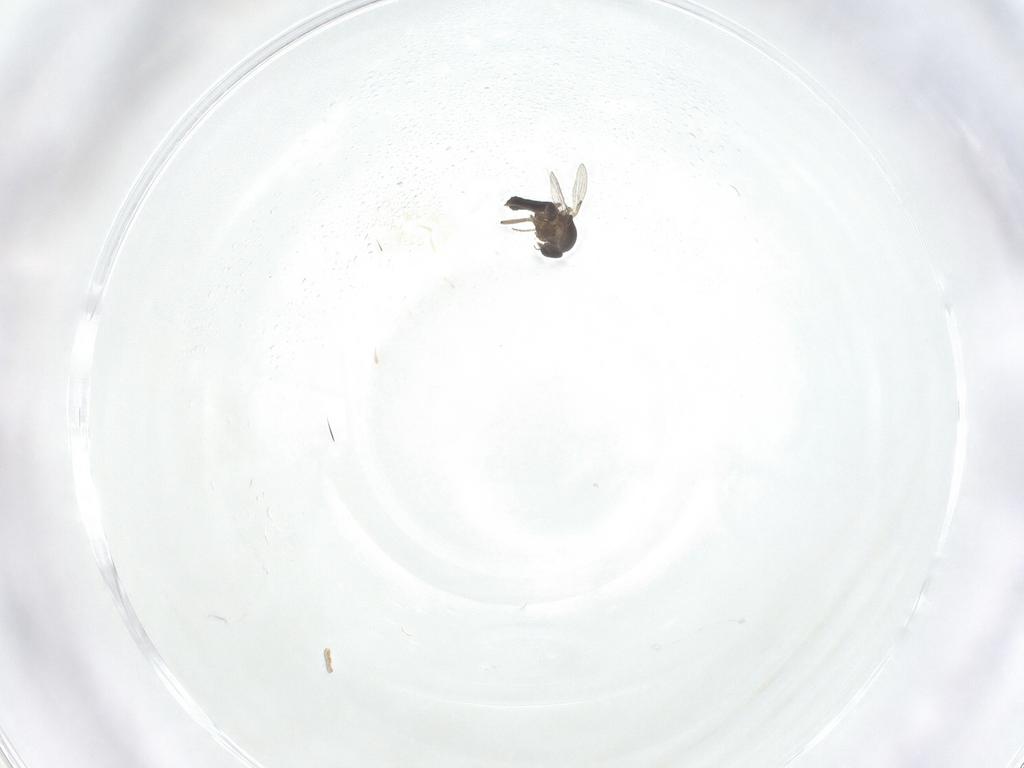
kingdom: Animalia
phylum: Arthropoda
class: Insecta
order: Diptera
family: Ceratopogonidae
